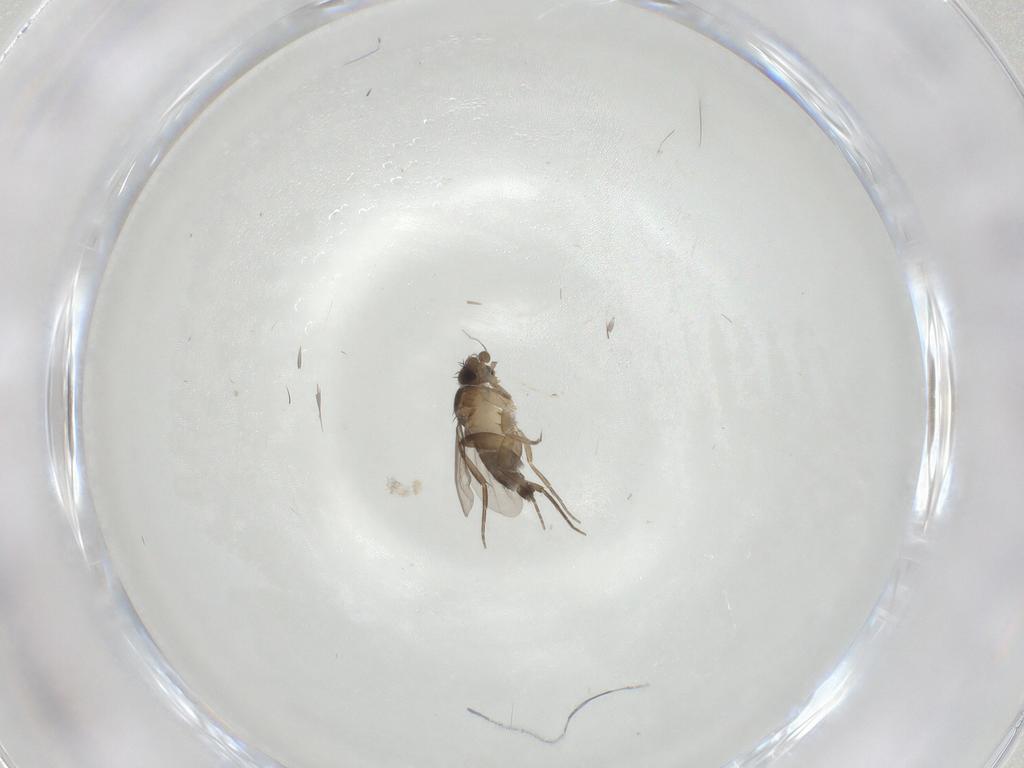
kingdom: Animalia
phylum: Arthropoda
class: Insecta
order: Diptera
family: Phoridae
